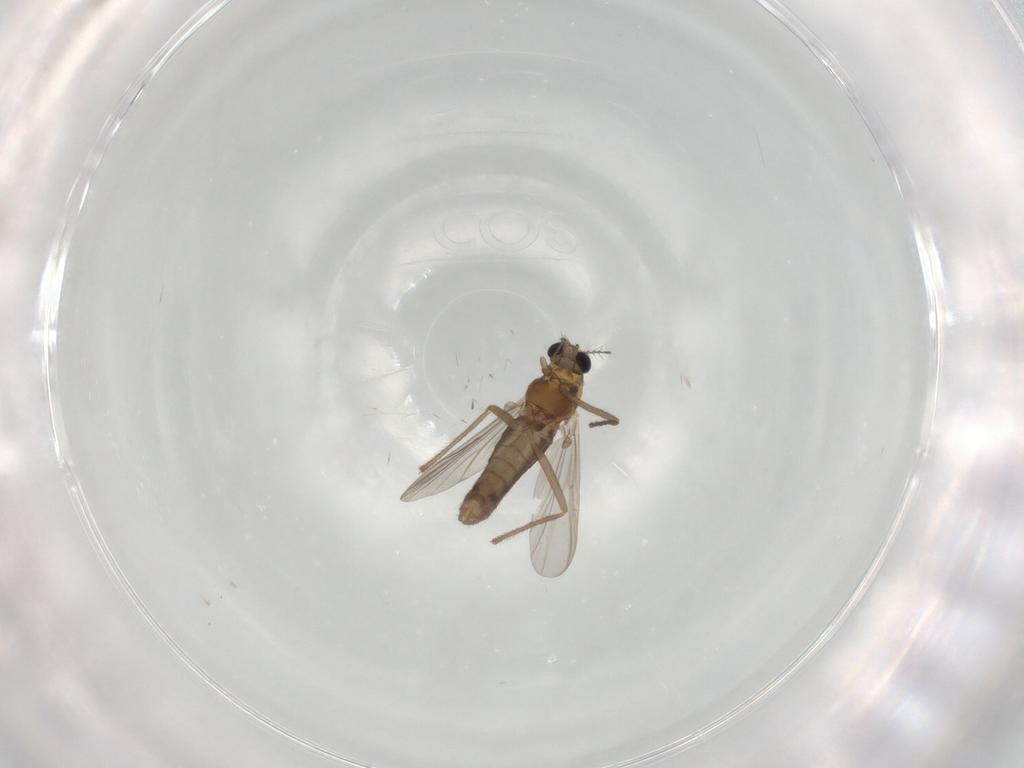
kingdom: Animalia
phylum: Arthropoda
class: Insecta
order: Diptera
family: Chironomidae
